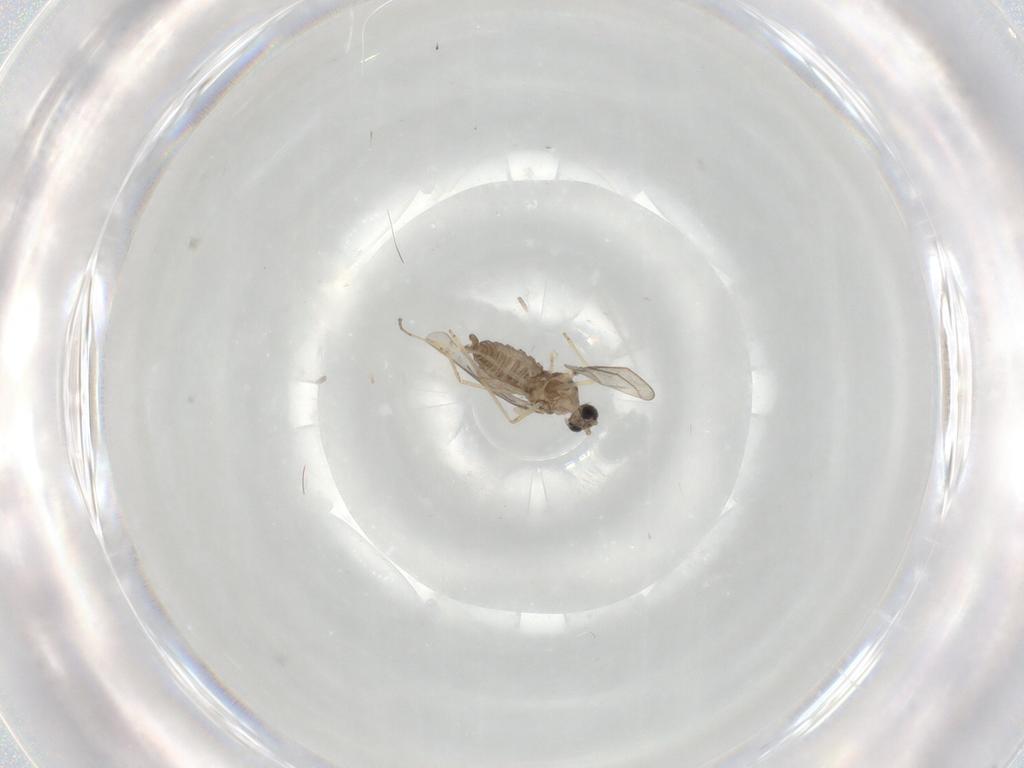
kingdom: Animalia
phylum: Arthropoda
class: Insecta
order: Diptera
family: Cecidomyiidae
